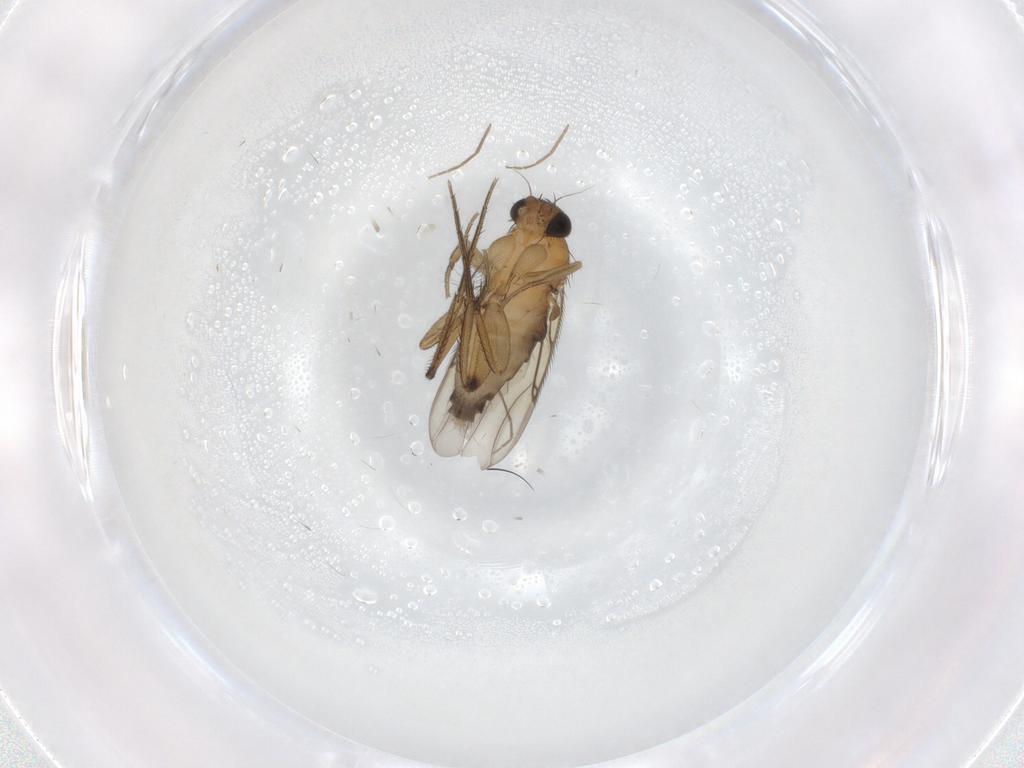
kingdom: Animalia
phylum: Arthropoda
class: Insecta
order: Diptera
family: Phoridae
